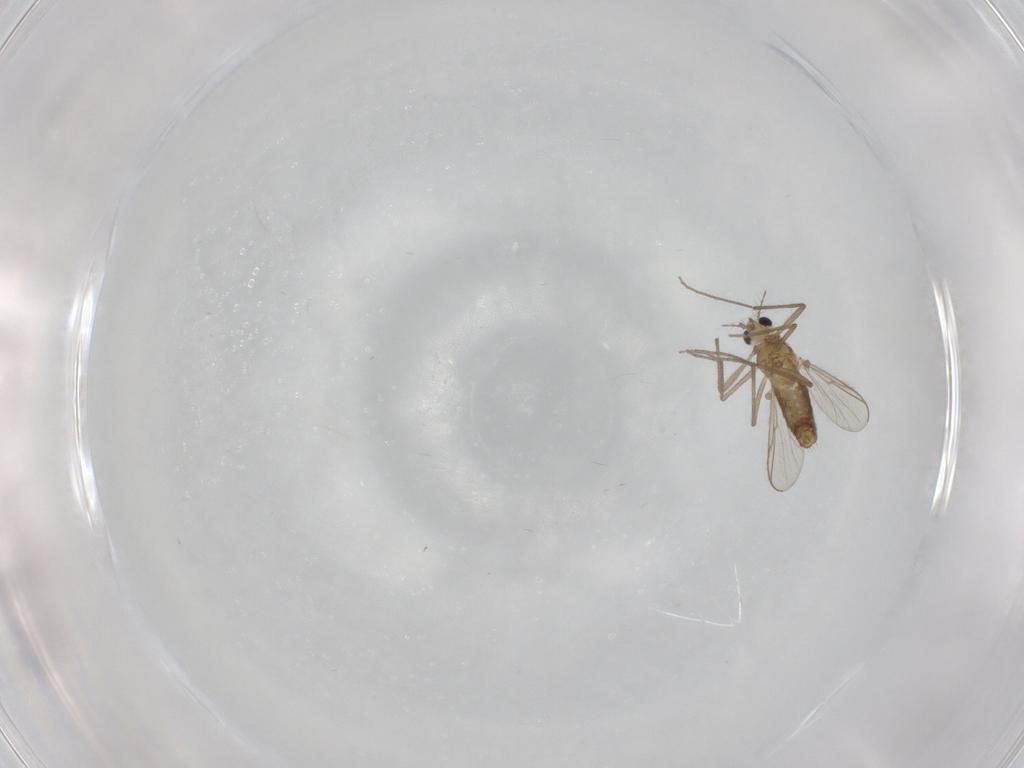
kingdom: Animalia
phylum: Arthropoda
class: Insecta
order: Diptera
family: Chironomidae
